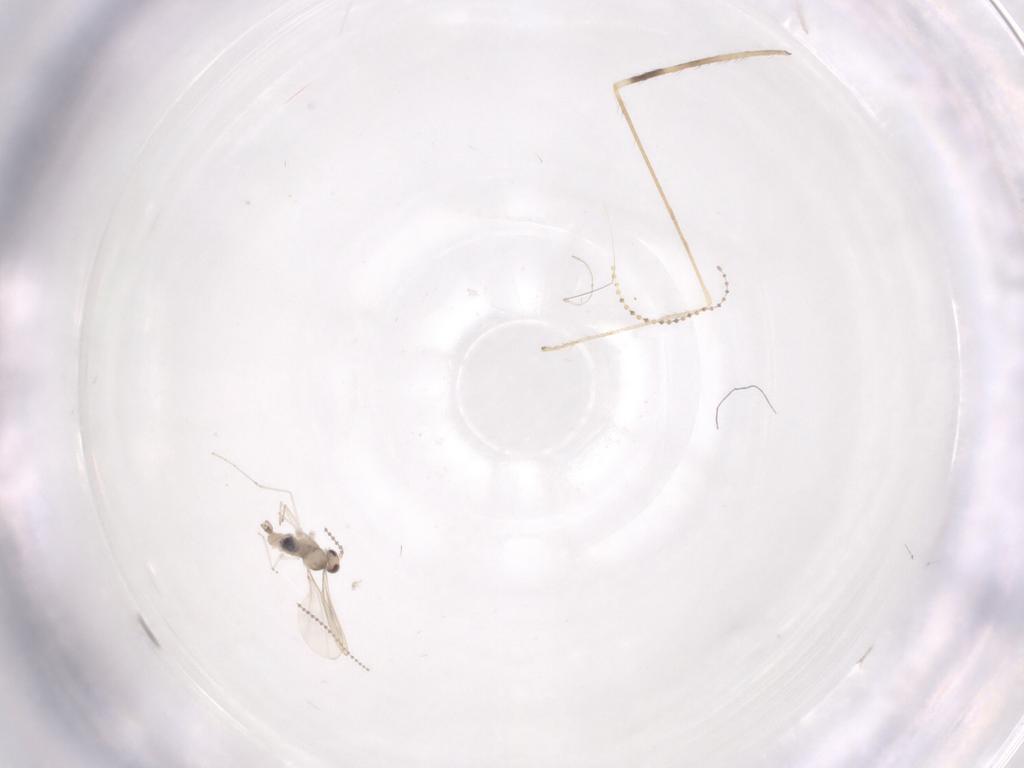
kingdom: Animalia
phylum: Arthropoda
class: Insecta
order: Diptera
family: Cecidomyiidae
